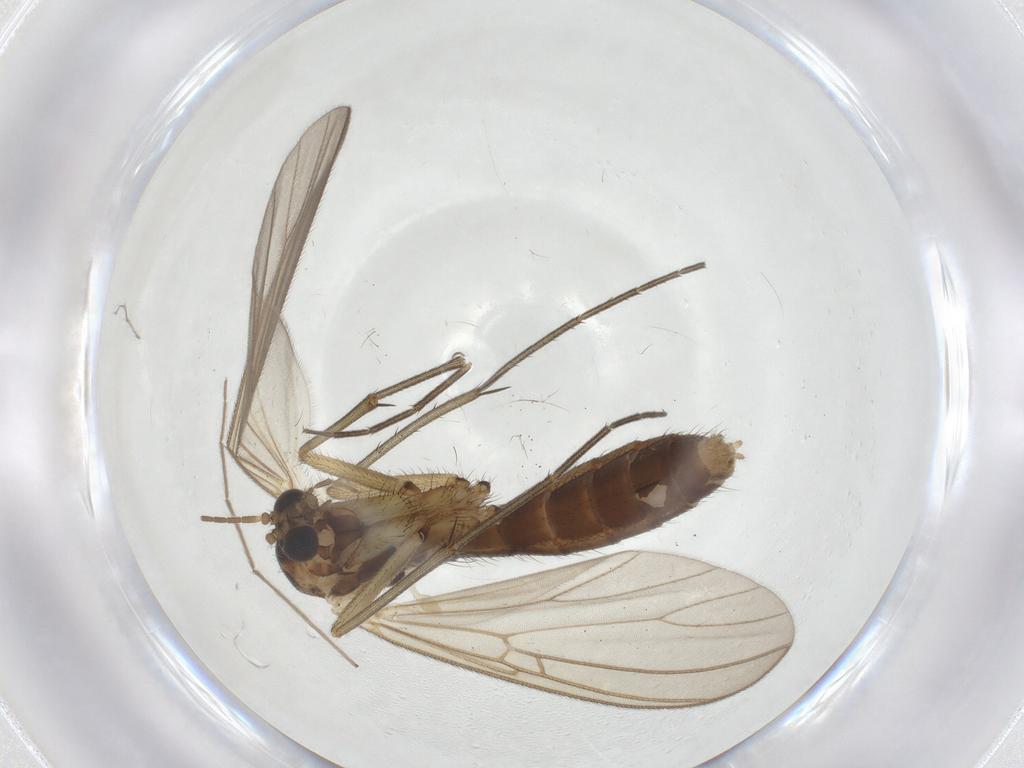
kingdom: Animalia
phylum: Arthropoda
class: Insecta
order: Diptera
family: Mycetophilidae
